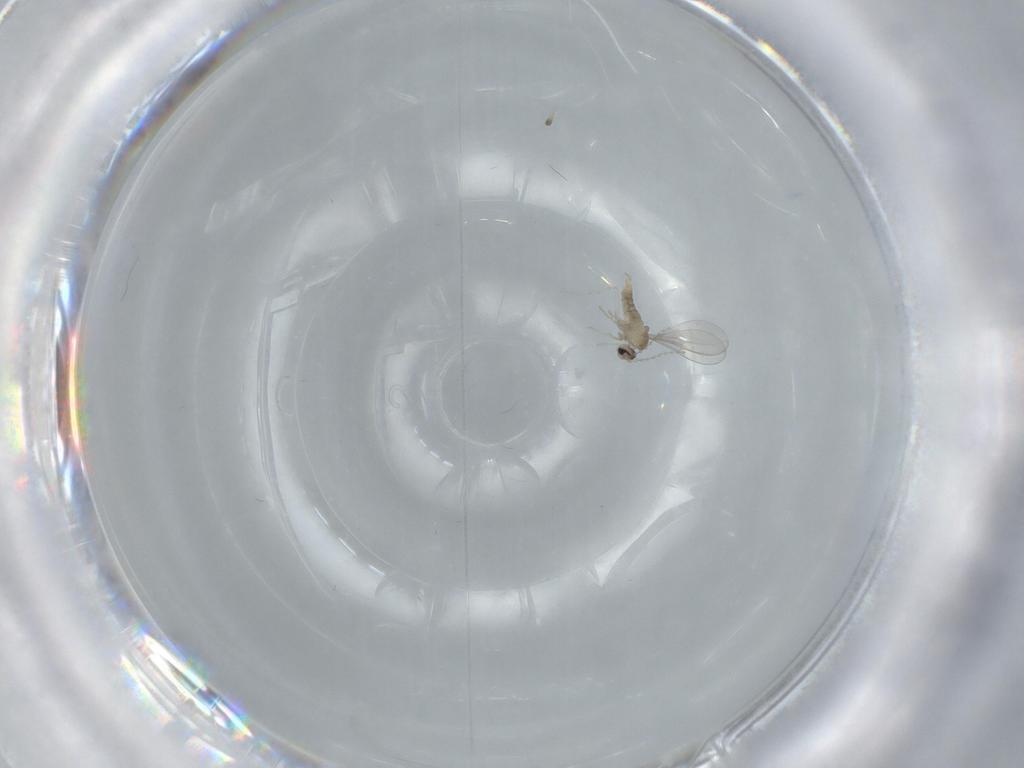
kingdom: Animalia
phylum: Arthropoda
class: Insecta
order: Diptera
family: Cecidomyiidae
